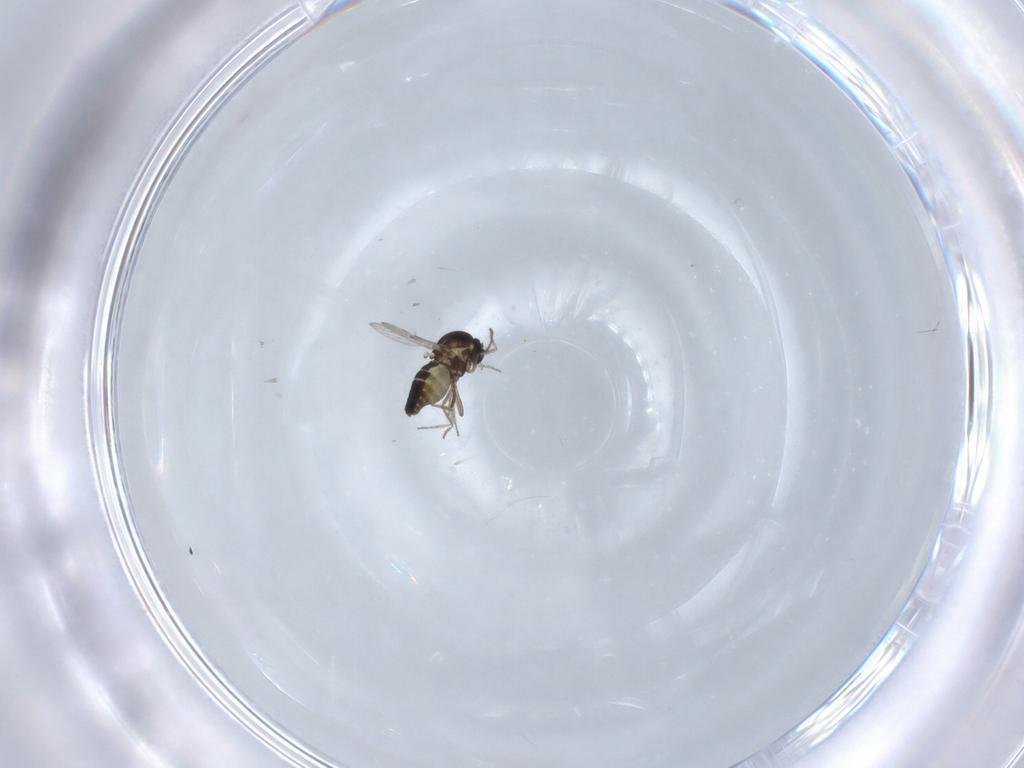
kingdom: Animalia
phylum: Arthropoda
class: Insecta
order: Diptera
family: Ceratopogonidae
